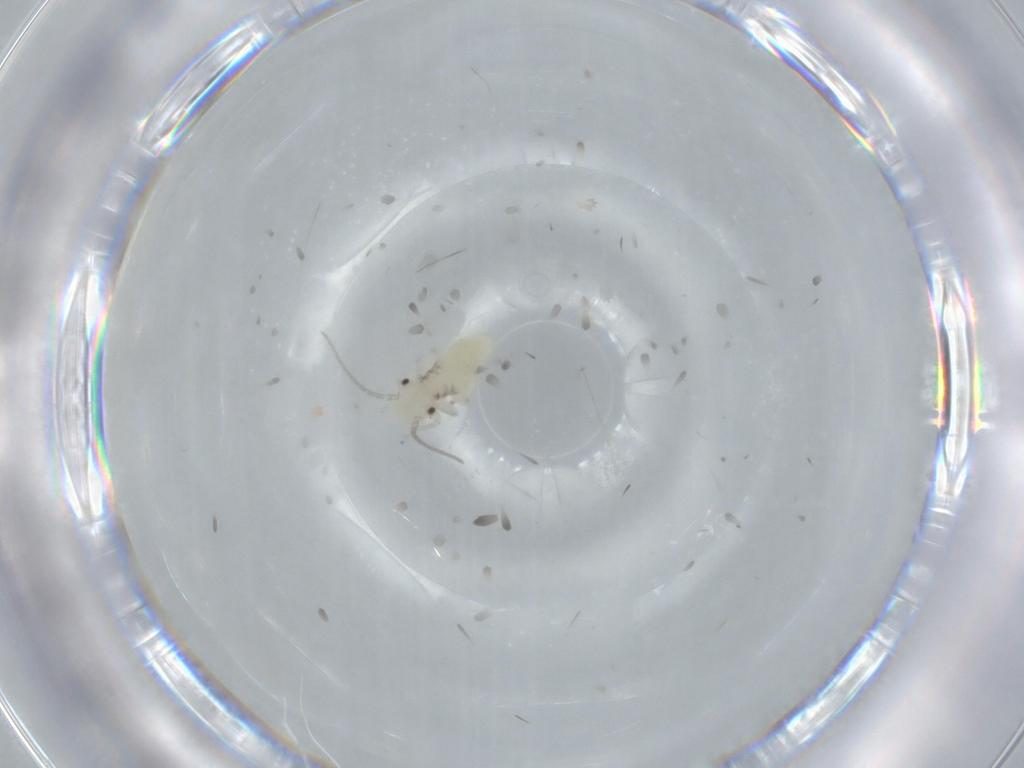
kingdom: Animalia
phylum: Arthropoda
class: Insecta
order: Psocodea
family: Caeciliusidae
